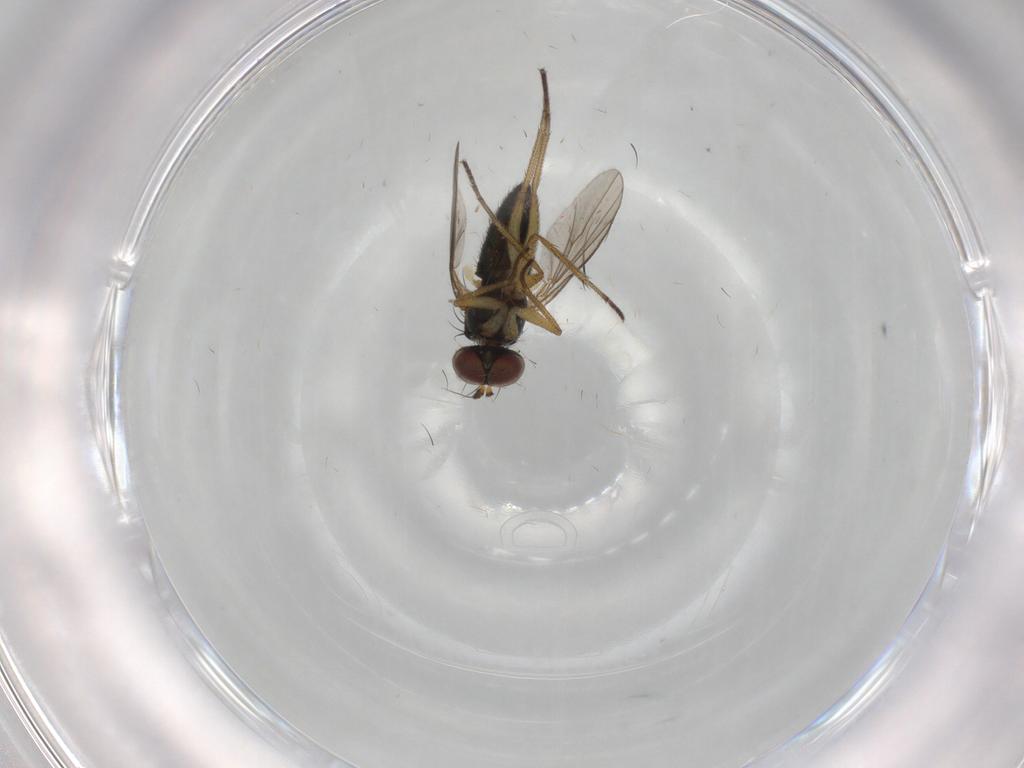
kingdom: Animalia
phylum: Arthropoda
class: Insecta
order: Diptera
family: Dolichopodidae
